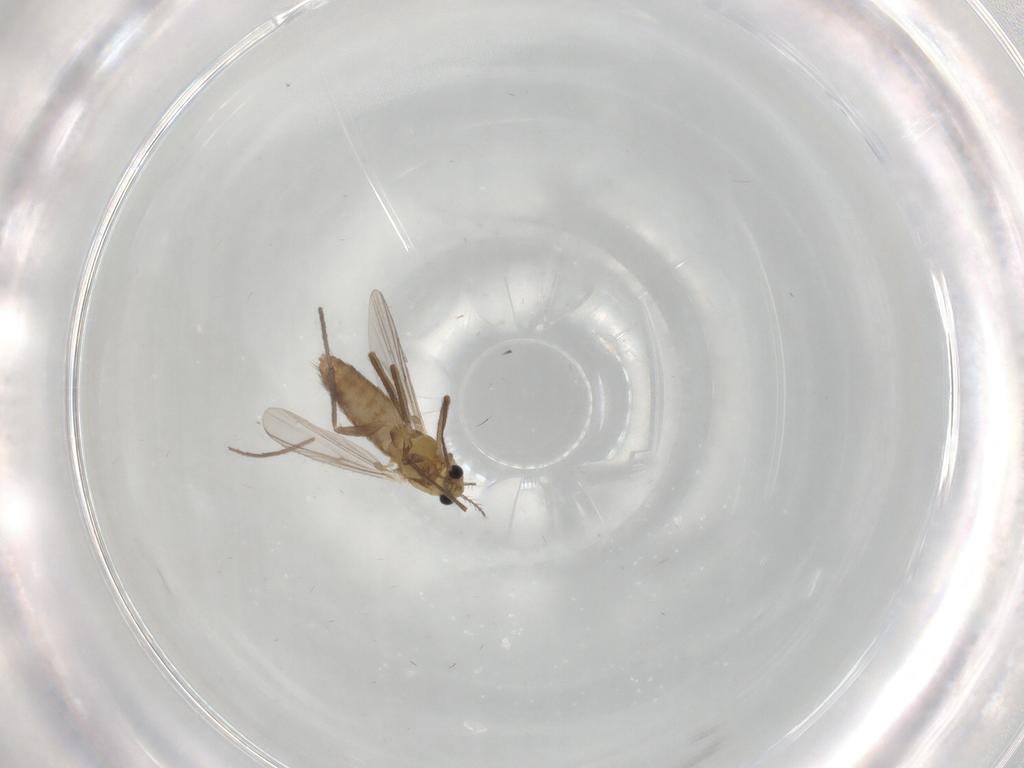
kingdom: Animalia
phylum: Arthropoda
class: Insecta
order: Diptera
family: Chironomidae
